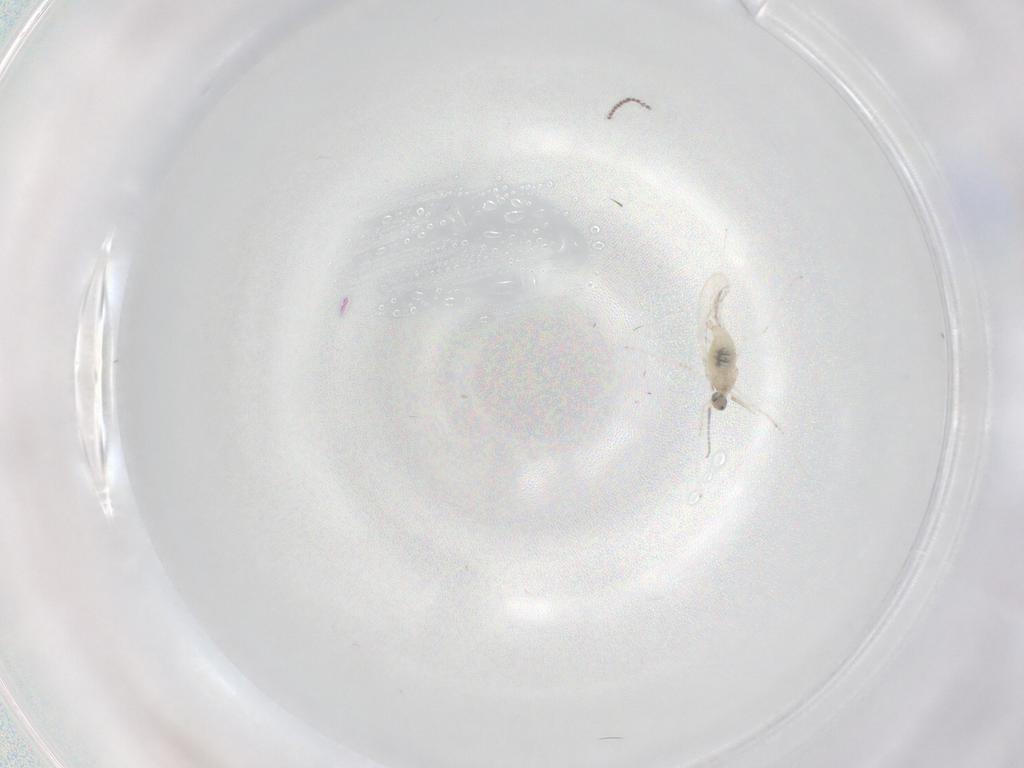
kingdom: Animalia
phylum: Arthropoda
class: Insecta
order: Diptera
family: Cecidomyiidae
